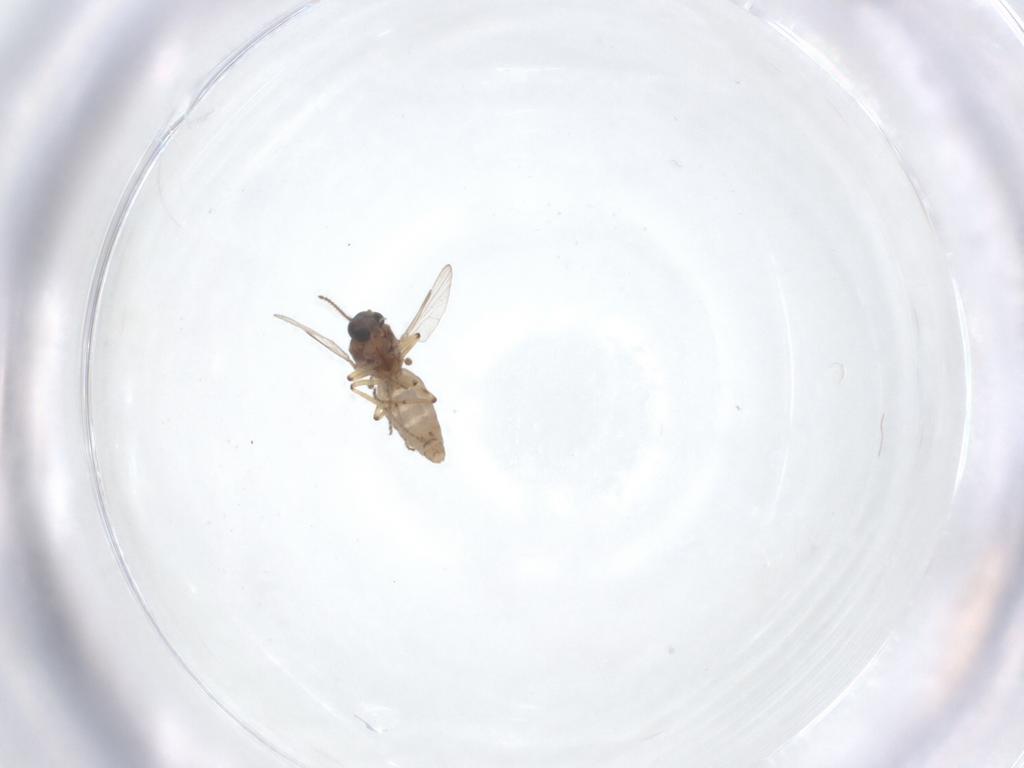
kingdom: Animalia
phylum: Arthropoda
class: Insecta
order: Diptera
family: Ceratopogonidae
